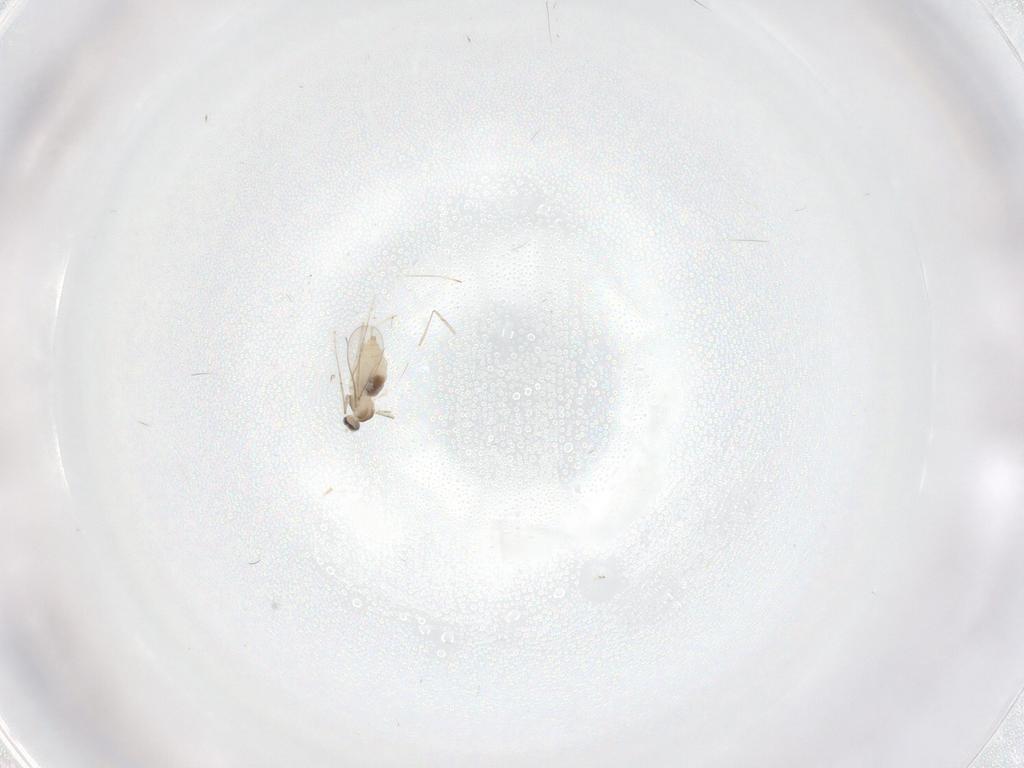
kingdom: Animalia
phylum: Arthropoda
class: Insecta
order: Diptera
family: Cecidomyiidae
